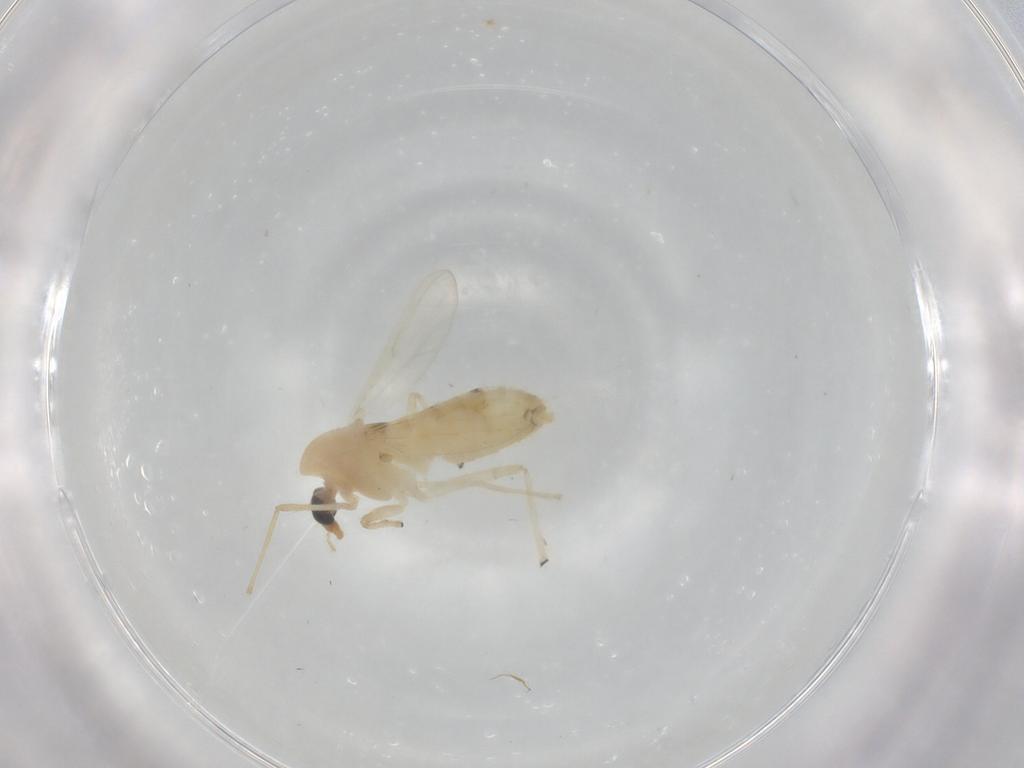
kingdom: Animalia
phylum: Arthropoda
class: Insecta
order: Diptera
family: Chironomidae
